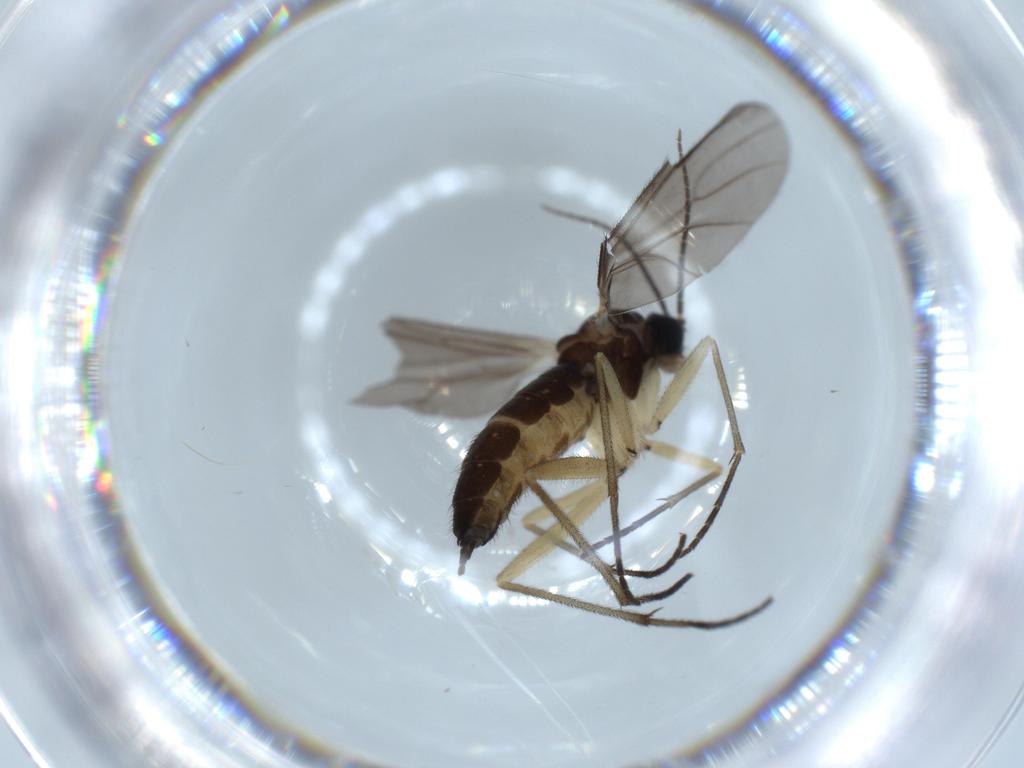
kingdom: Animalia
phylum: Arthropoda
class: Insecta
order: Diptera
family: Sciaridae
